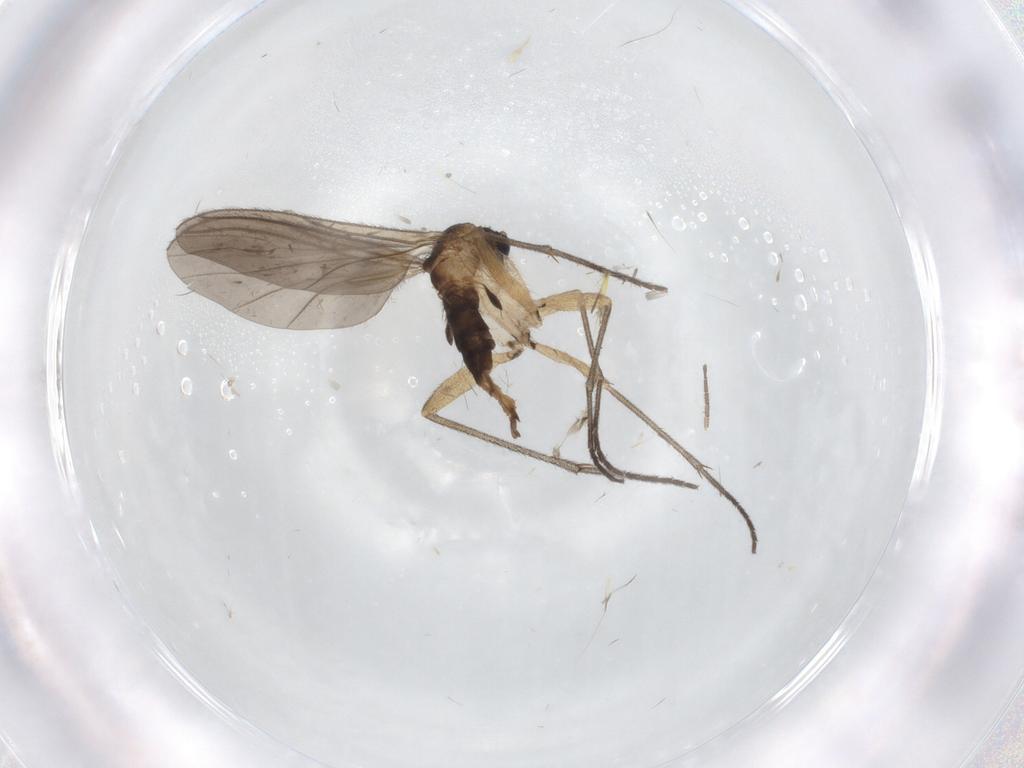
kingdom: Animalia
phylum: Arthropoda
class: Insecta
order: Diptera
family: Sciaridae
